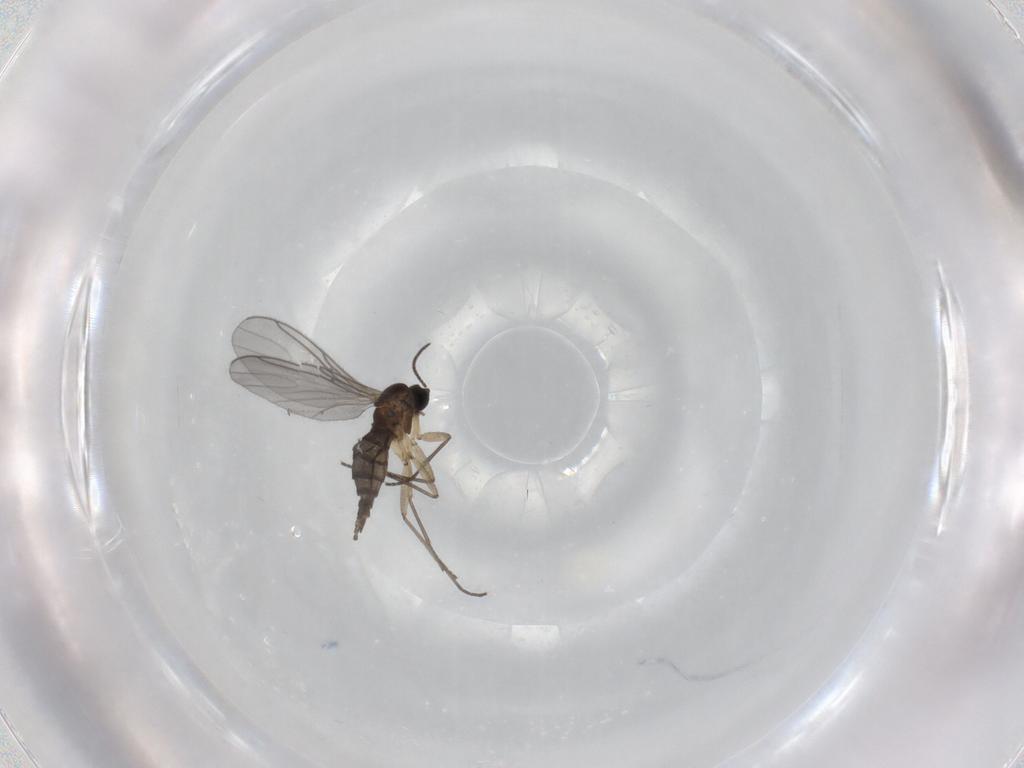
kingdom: Animalia
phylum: Arthropoda
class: Insecta
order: Diptera
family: Sciaridae
